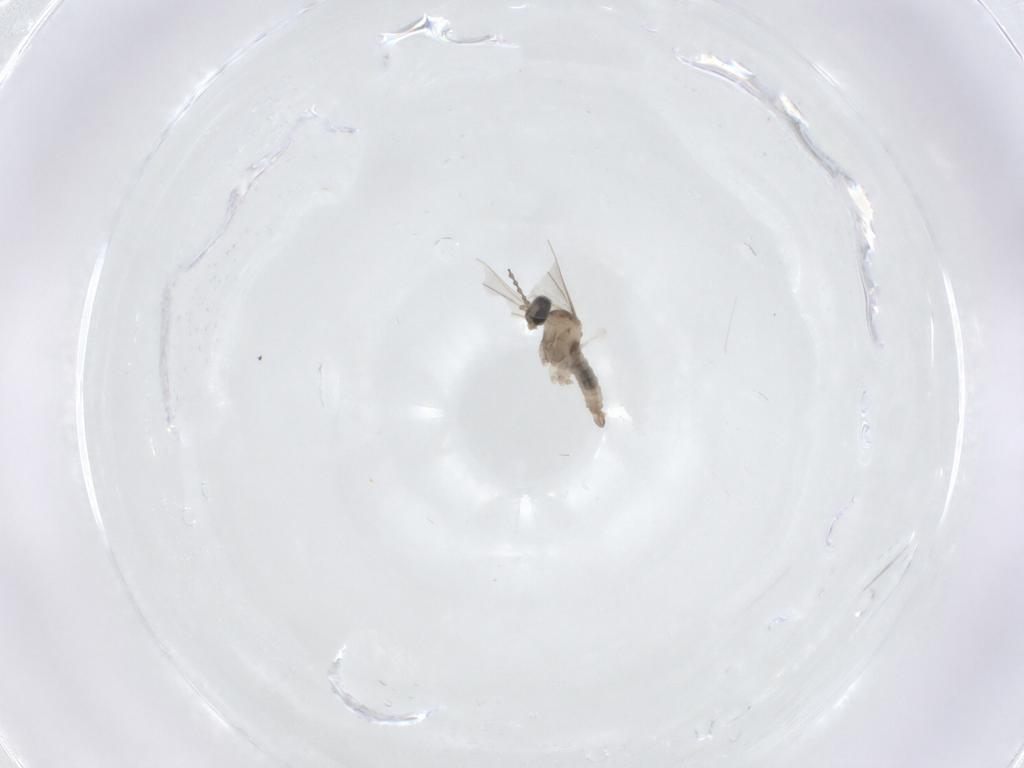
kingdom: Animalia
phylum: Arthropoda
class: Insecta
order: Diptera
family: Cecidomyiidae
